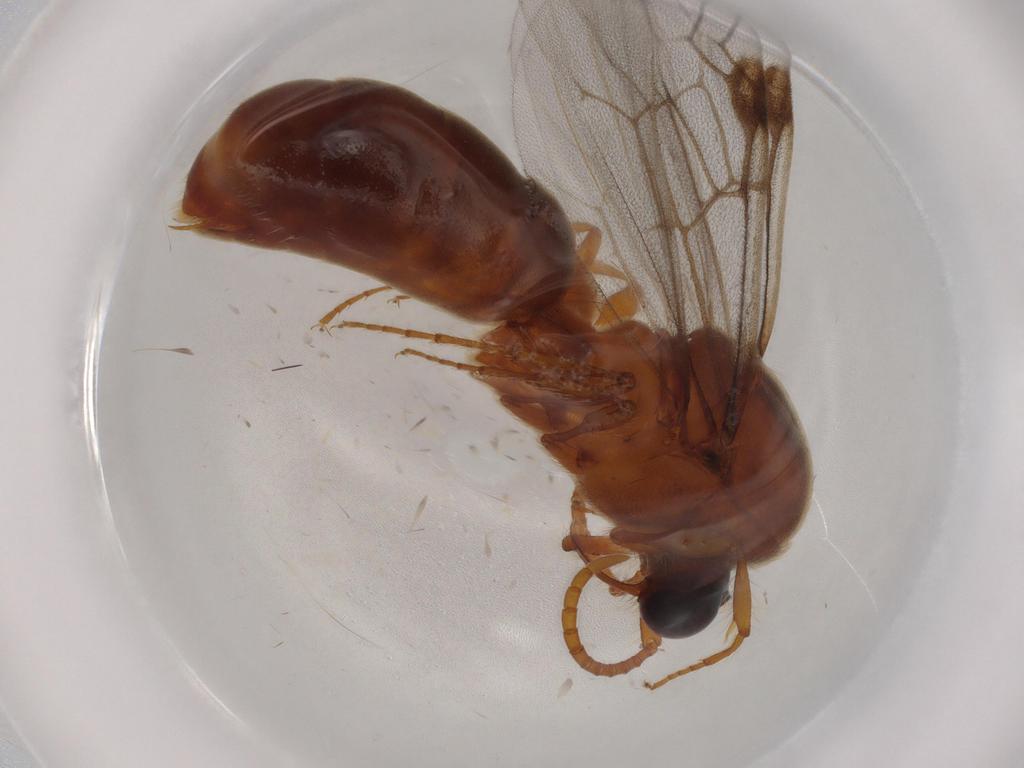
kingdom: Animalia
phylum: Arthropoda
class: Insecta
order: Hymenoptera
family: Formicidae
